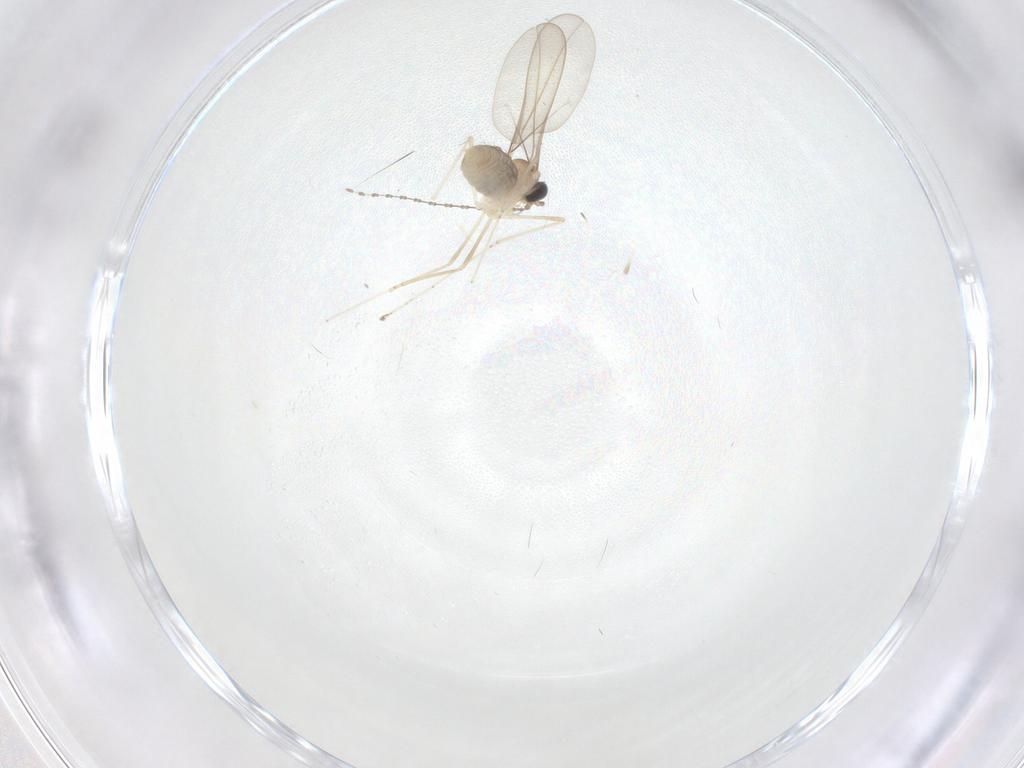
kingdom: Animalia
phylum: Arthropoda
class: Insecta
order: Diptera
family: Cecidomyiidae
